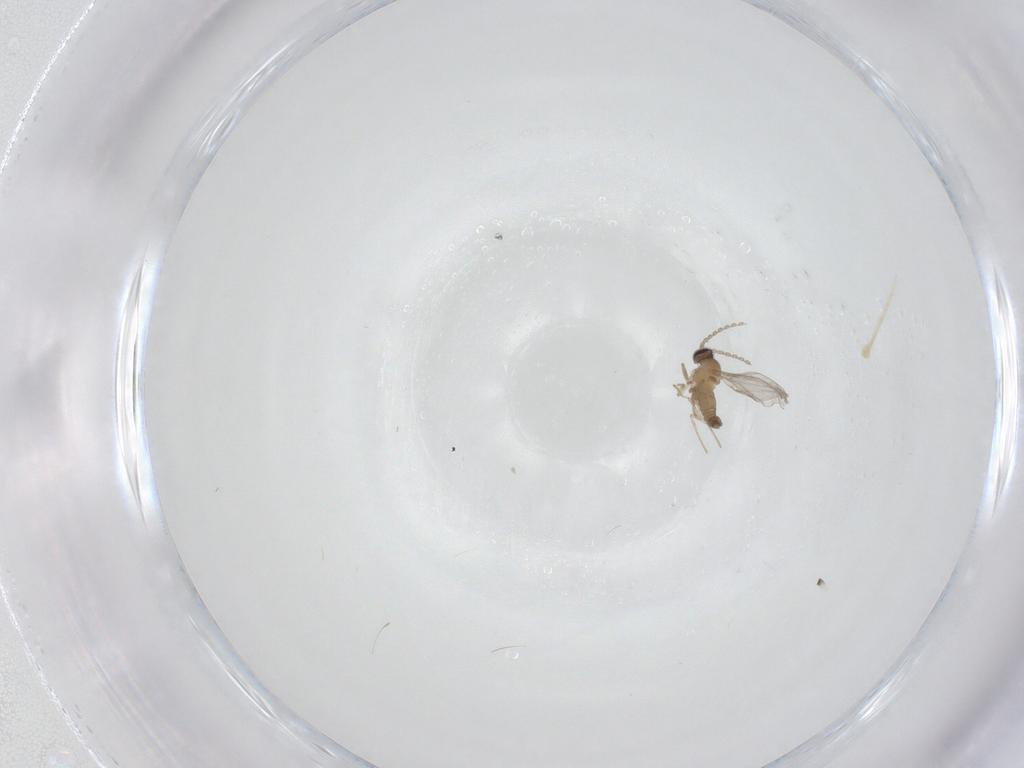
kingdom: Animalia
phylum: Arthropoda
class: Insecta
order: Diptera
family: Cecidomyiidae
